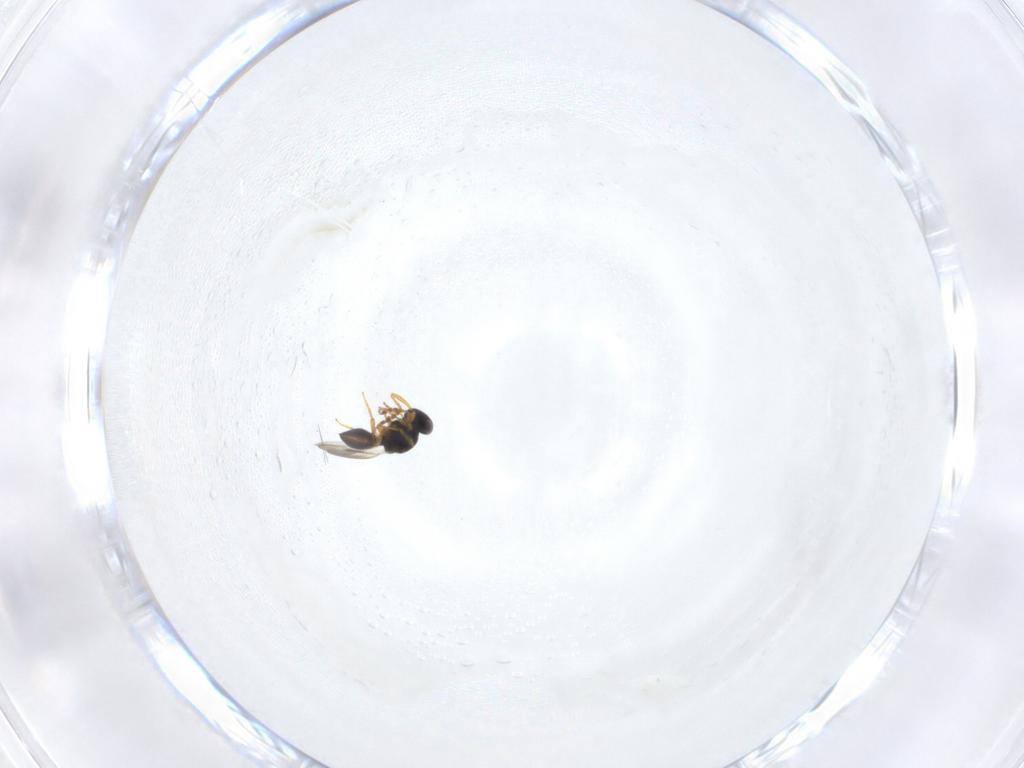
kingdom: Animalia
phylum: Arthropoda
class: Insecta
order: Hymenoptera
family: Platygastridae
